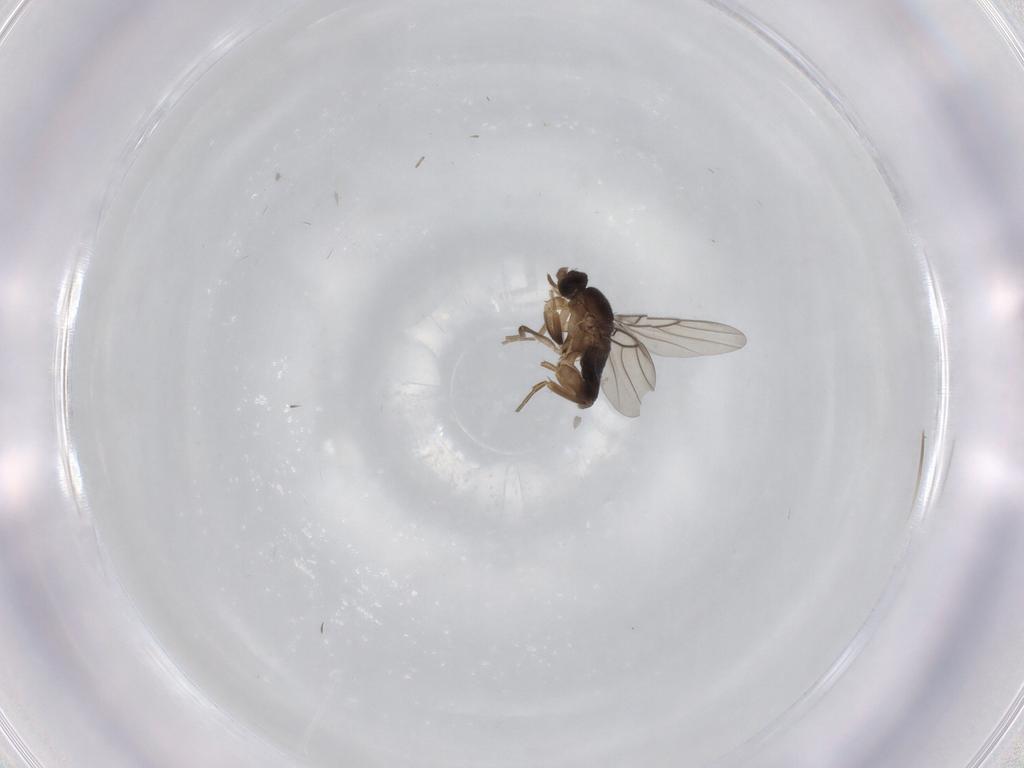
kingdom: Animalia
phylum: Arthropoda
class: Insecta
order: Diptera
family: Phoridae
